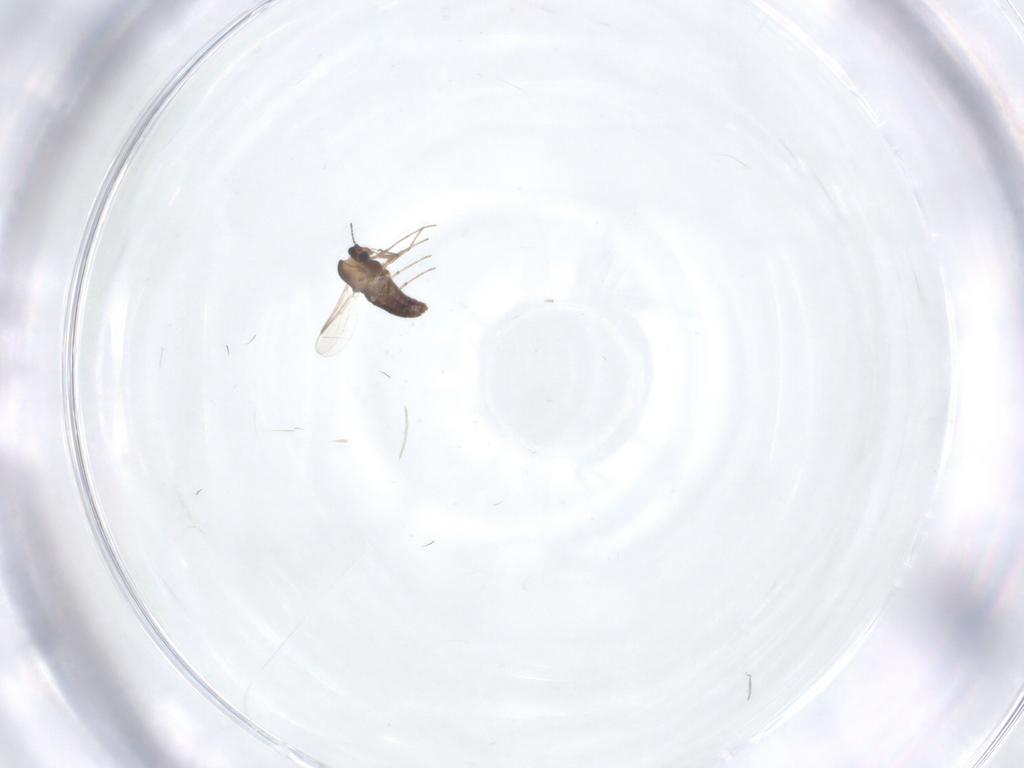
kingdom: Animalia
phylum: Arthropoda
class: Insecta
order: Diptera
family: Chironomidae
